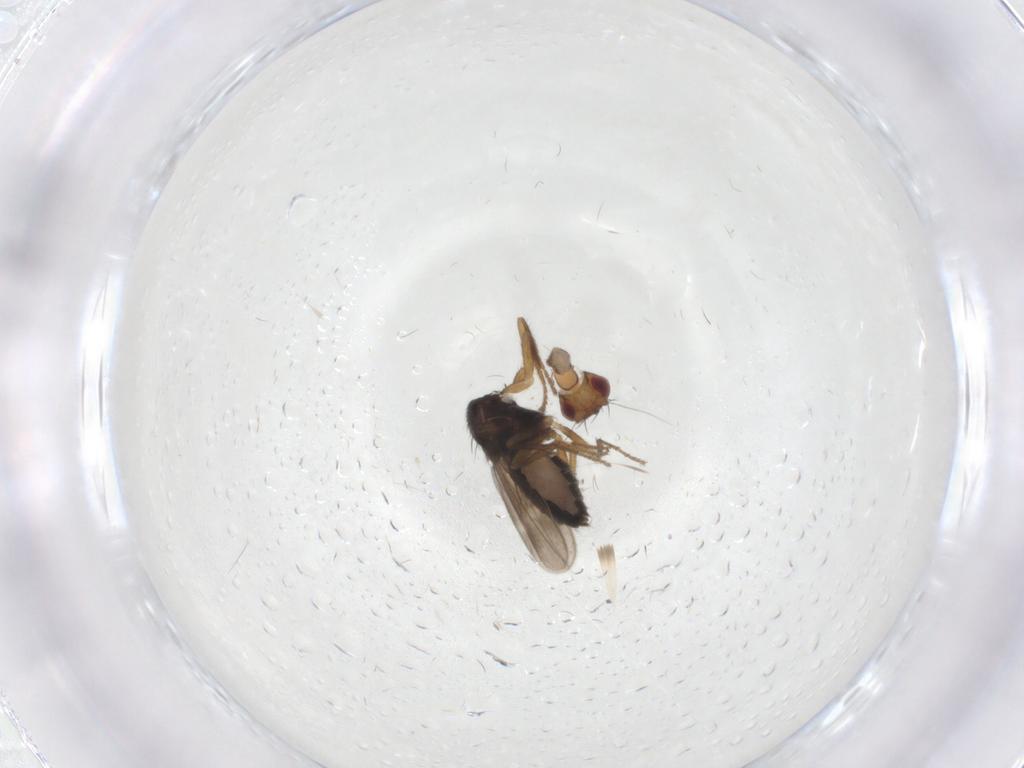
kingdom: Animalia
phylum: Arthropoda
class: Insecta
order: Diptera
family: Sphaeroceridae
